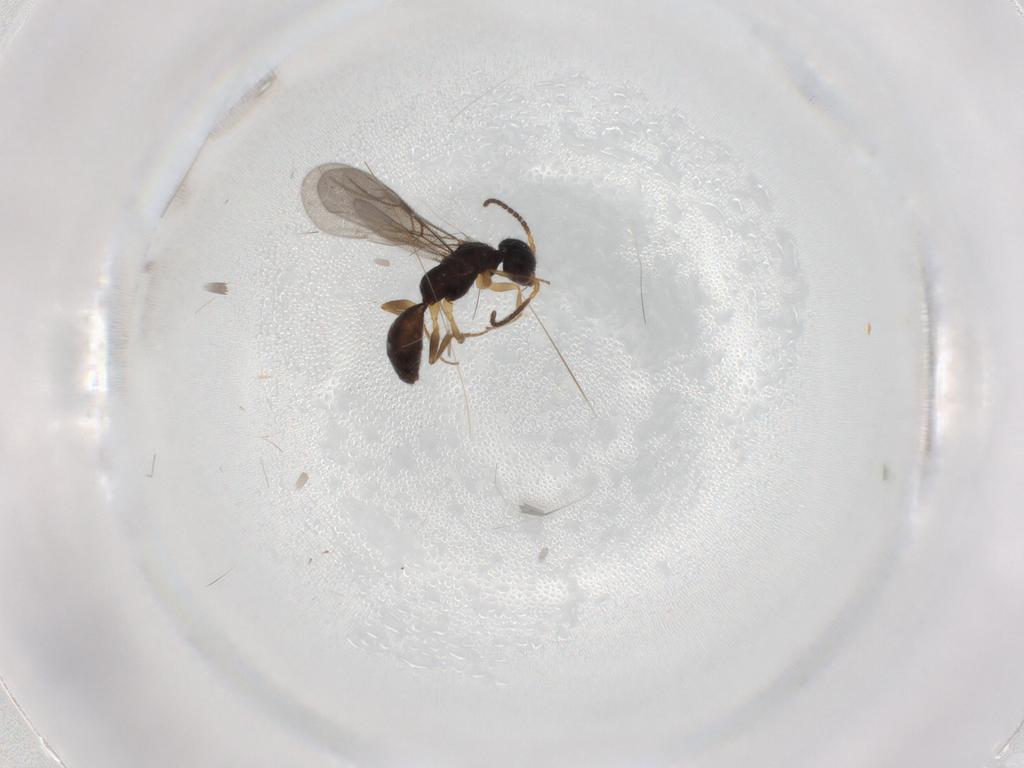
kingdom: Animalia
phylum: Arthropoda
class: Insecta
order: Hymenoptera
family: Bethylidae
